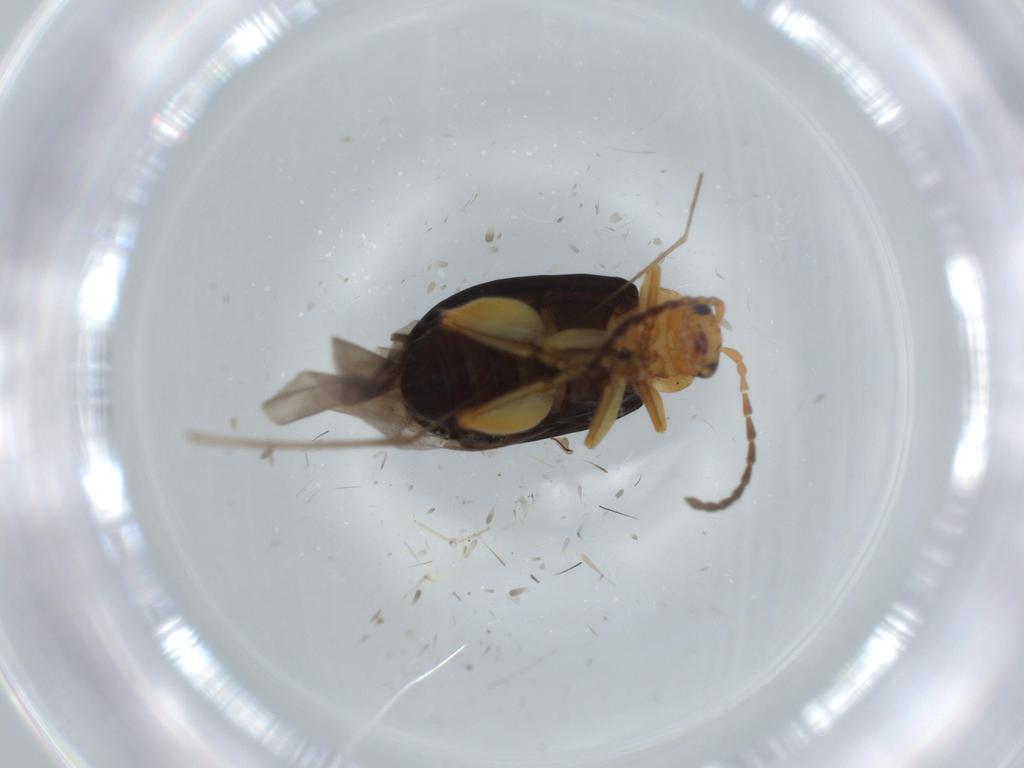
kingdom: Animalia
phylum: Arthropoda
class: Insecta
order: Coleoptera
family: Chrysomelidae
